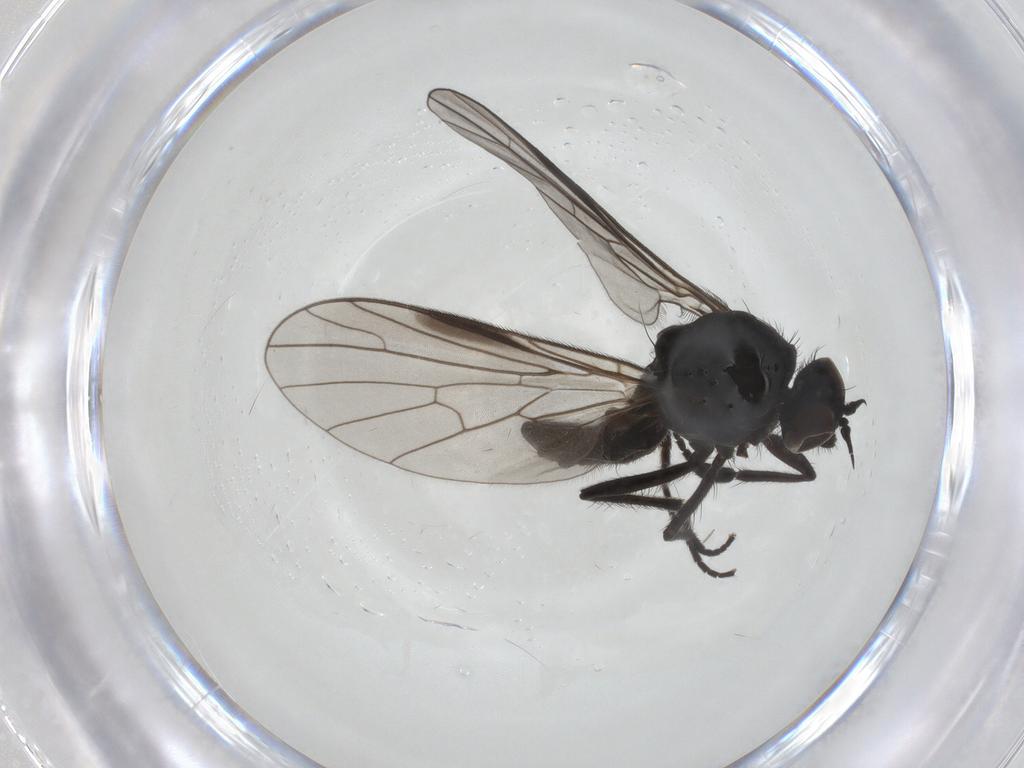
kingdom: Animalia
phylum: Arthropoda
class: Insecta
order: Diptera
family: Empididae
